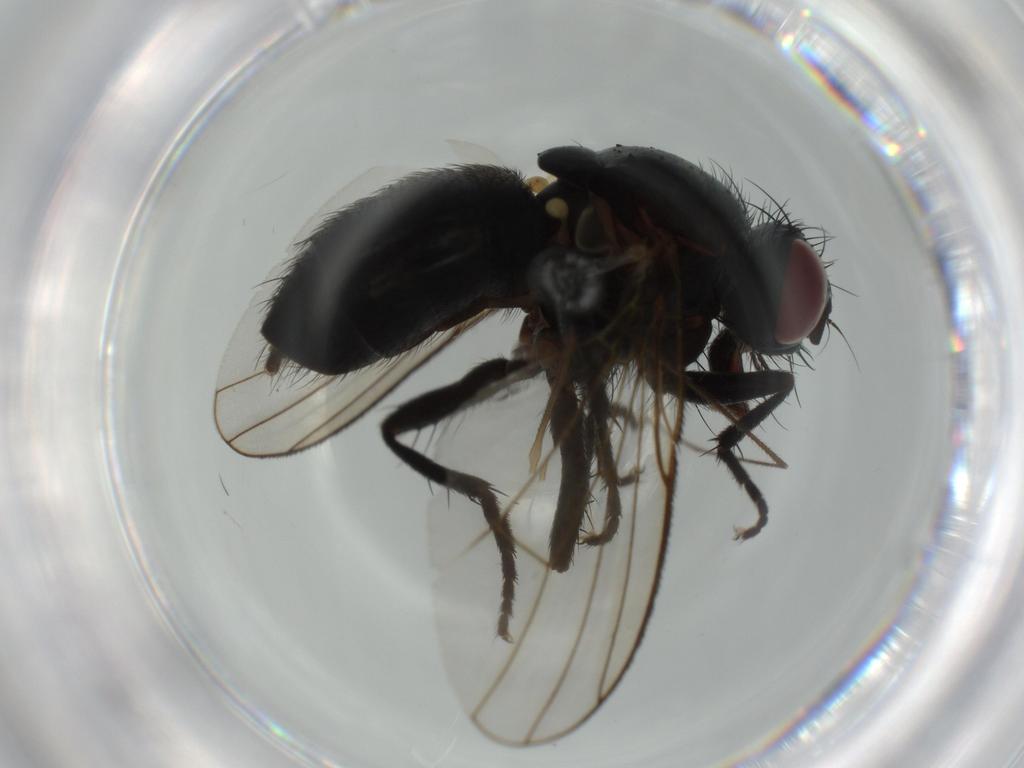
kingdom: Animalia
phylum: Arthropoda
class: Insecta
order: Diptera
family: Muscidae
